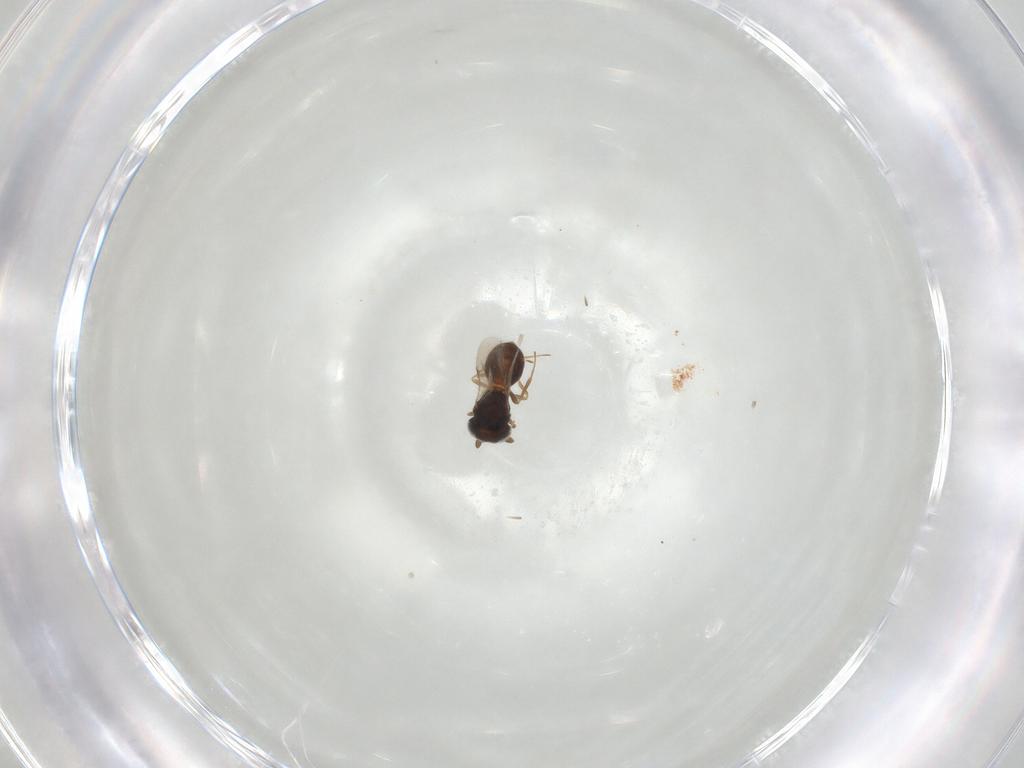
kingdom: Animalia
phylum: Arthropoda
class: Insecta
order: Hymenoptera
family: Scelionidae
